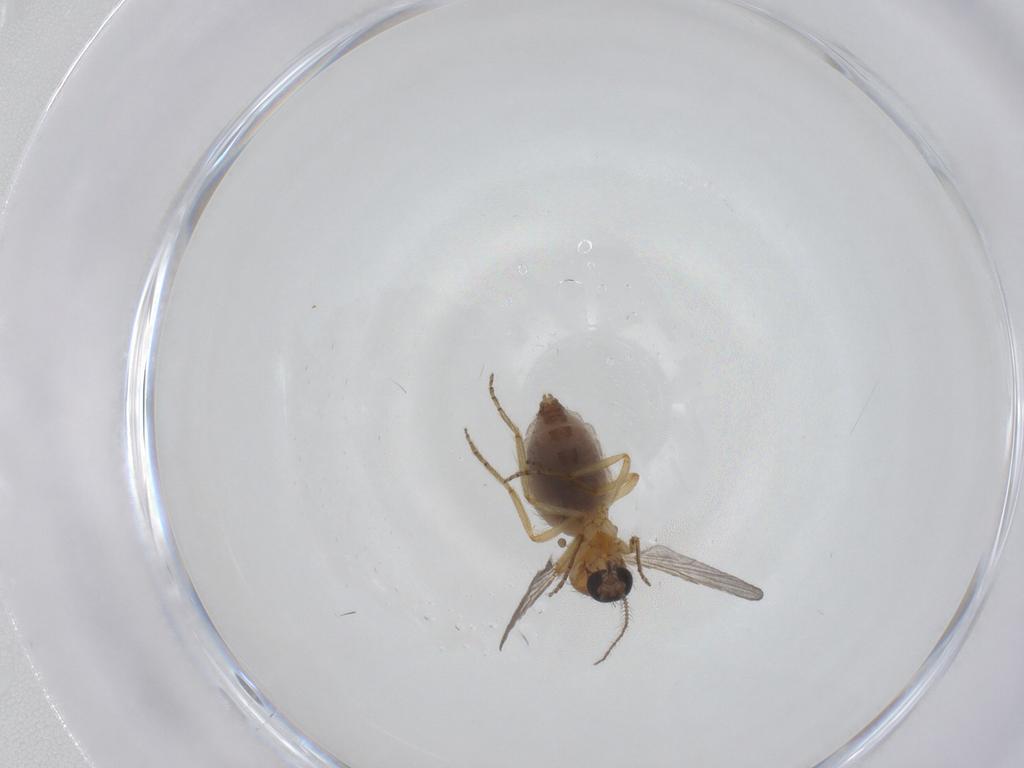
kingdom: Animalia
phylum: Arthropoda
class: Insecta
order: Diptera
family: Ceratopogonidae
